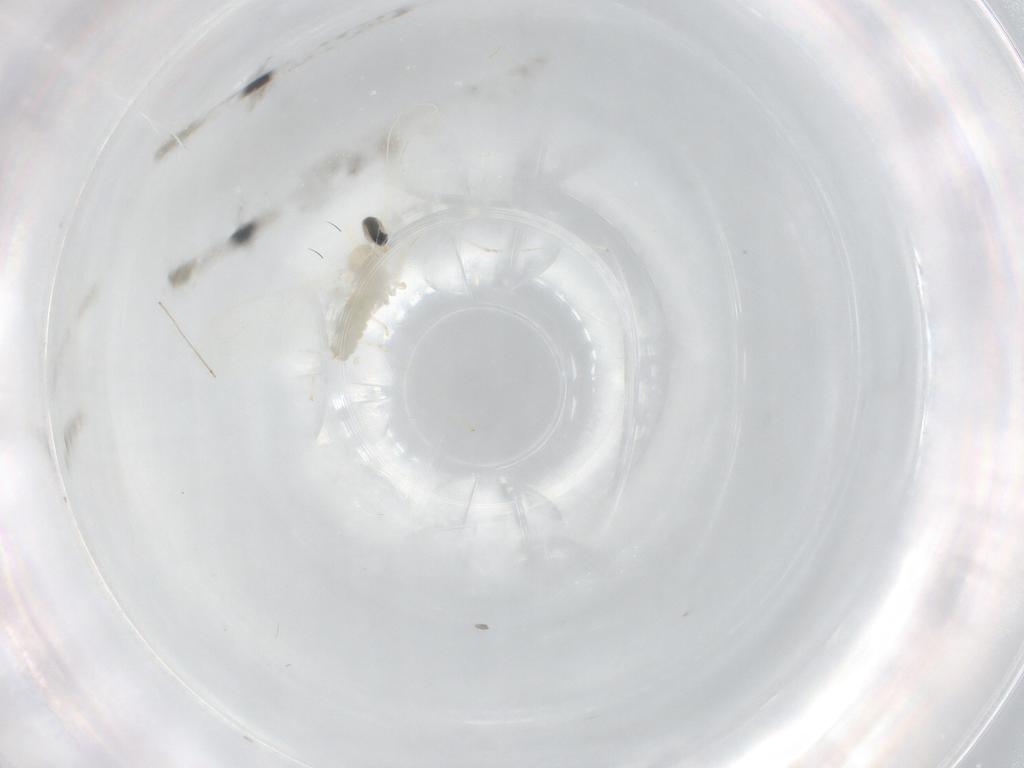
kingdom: Animalia
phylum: Arthropoda
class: Insecta
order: Diptera
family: Cecidomyiidae
